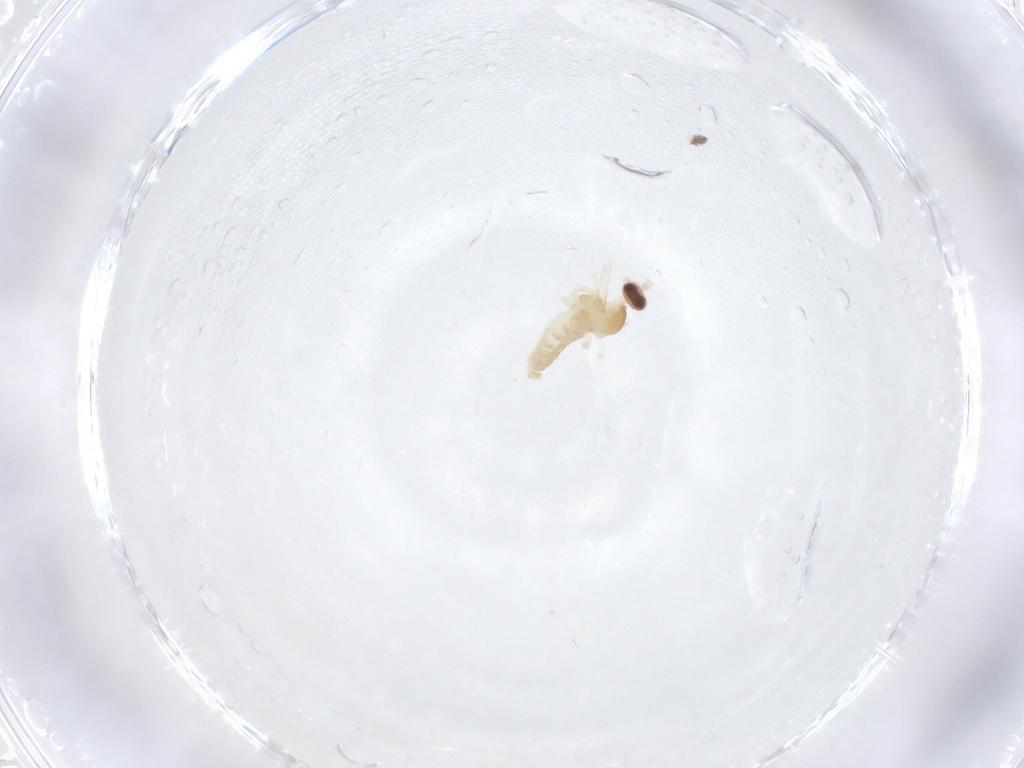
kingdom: Animalia
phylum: Arthropoda
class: Insecta
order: Diptera
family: Cecidomyiidae
